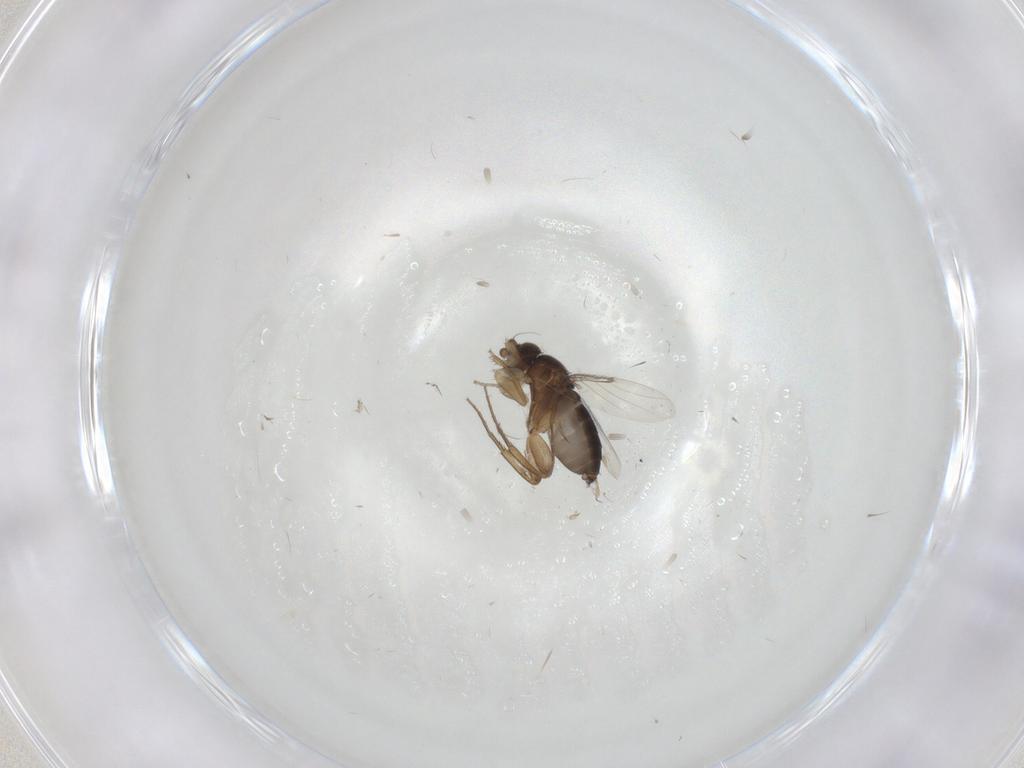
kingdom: Animalia
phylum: Arthropoda
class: Insecta
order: Diptera
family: Phoridae
